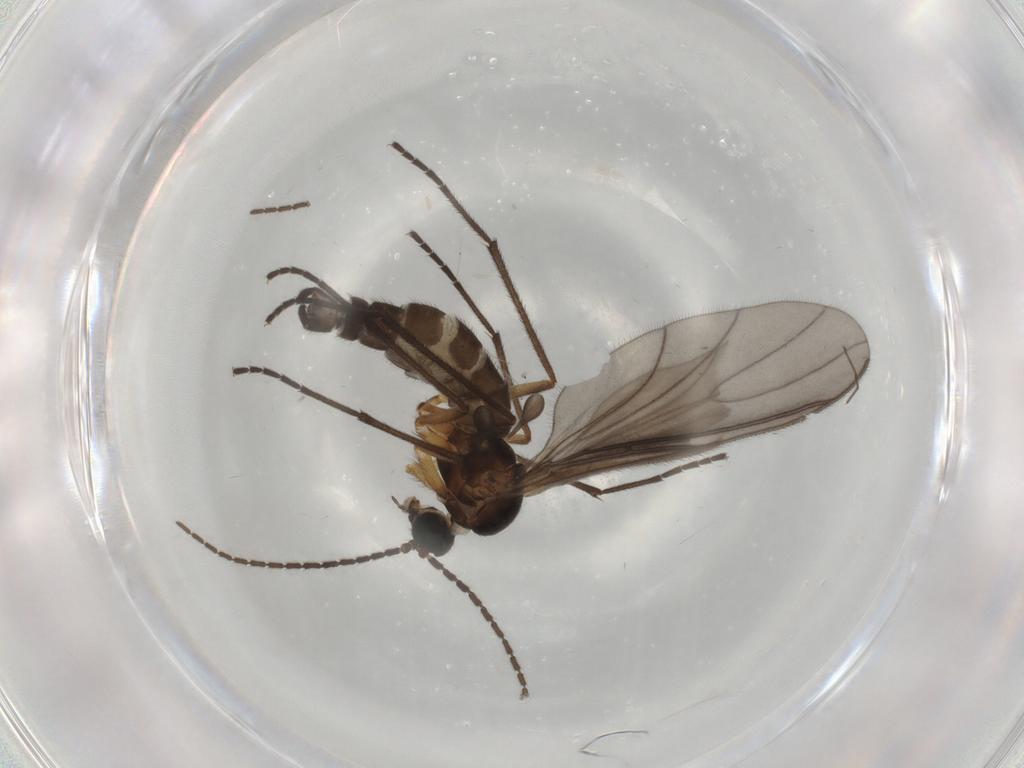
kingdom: Animalia
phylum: Arthropoda
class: Insecta
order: Diptera
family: Sciaridae
